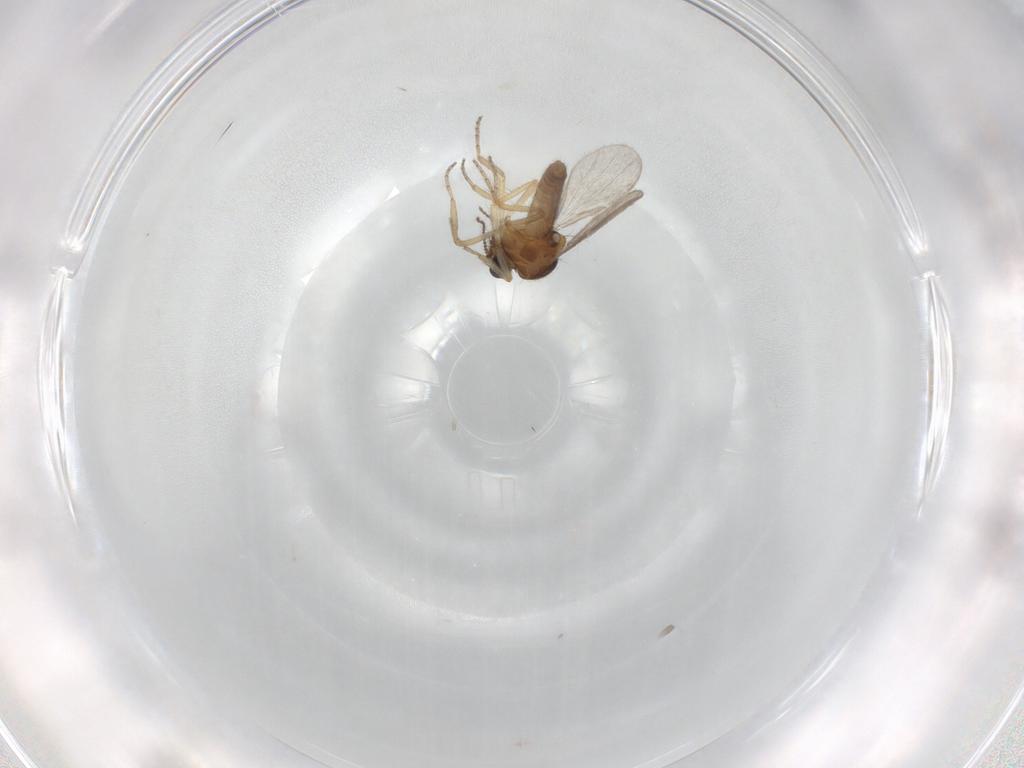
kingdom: Animalia
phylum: Arthropoda
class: Insecta
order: Diptera
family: Ceratopogonidae
